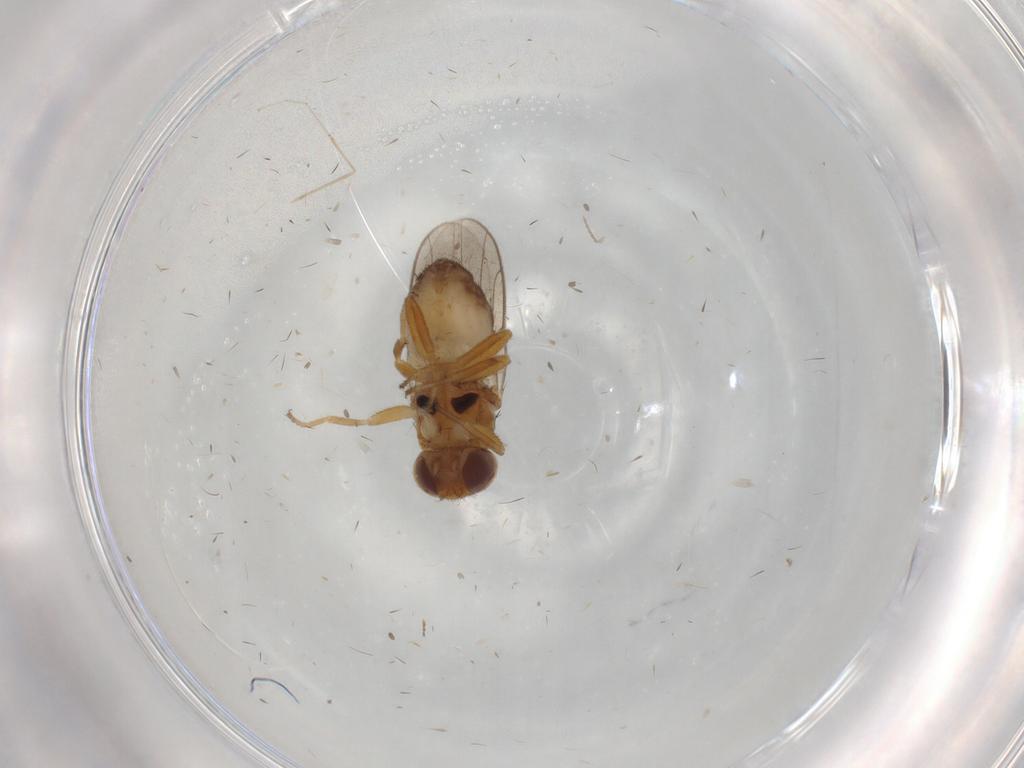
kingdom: Animalia
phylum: Arthropoda
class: Insecta
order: Diptera
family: Chloropidae
